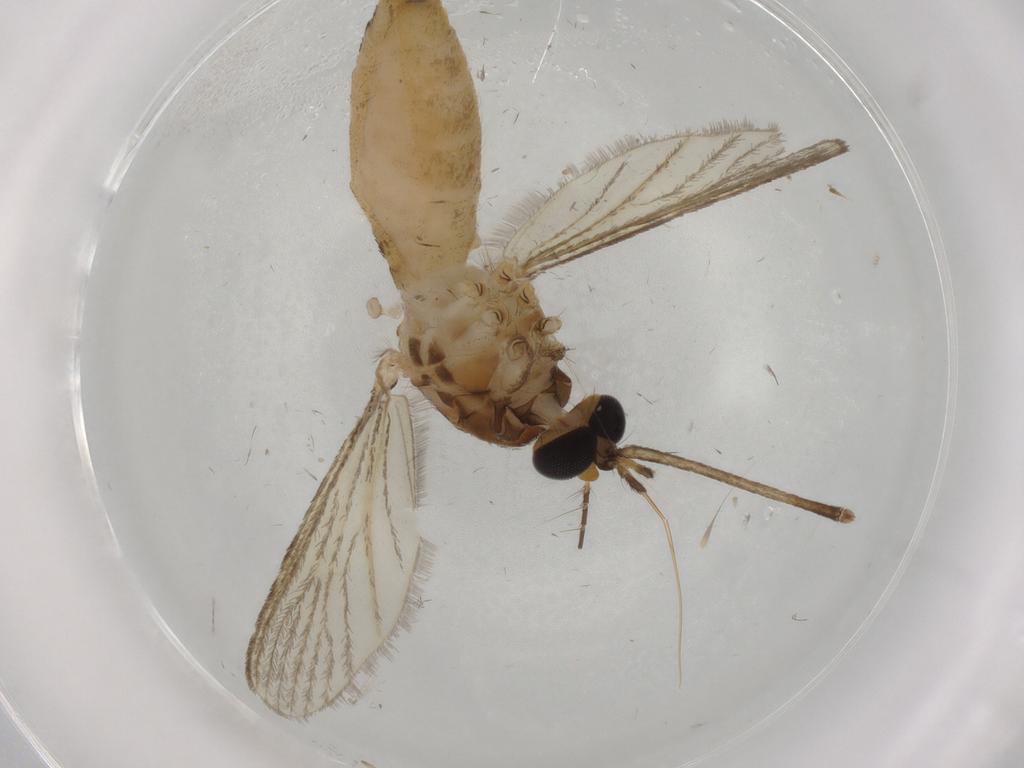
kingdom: Animalia
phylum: Arthropoda
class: Insecta
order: Diptera
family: Culicidae
